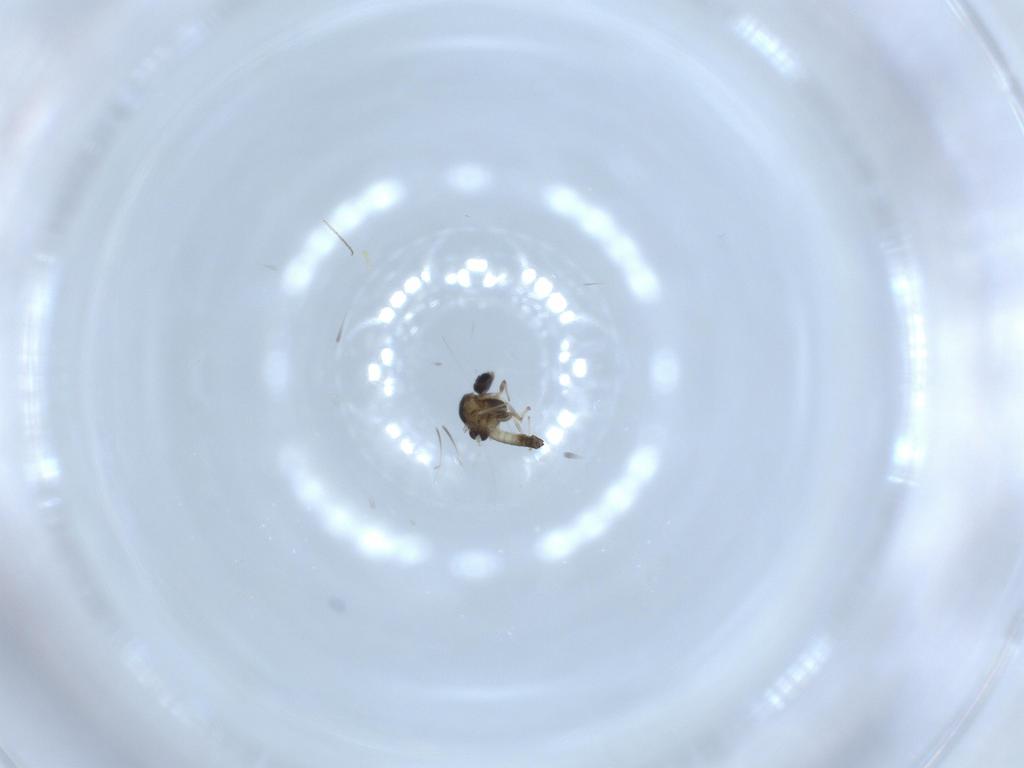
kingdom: Animalia
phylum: Arthropoda
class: Insecta
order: Diptera
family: Chironomidae
